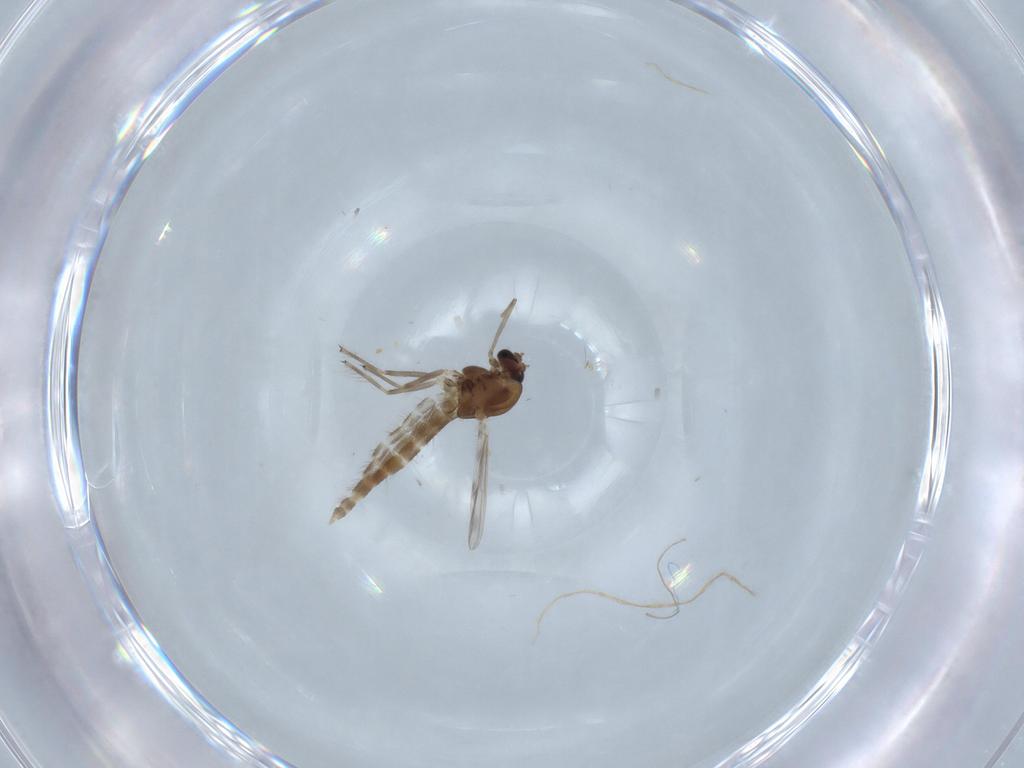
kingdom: Animalia
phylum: Arthropoda
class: Insecta
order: Diptera
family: Chironomidae
